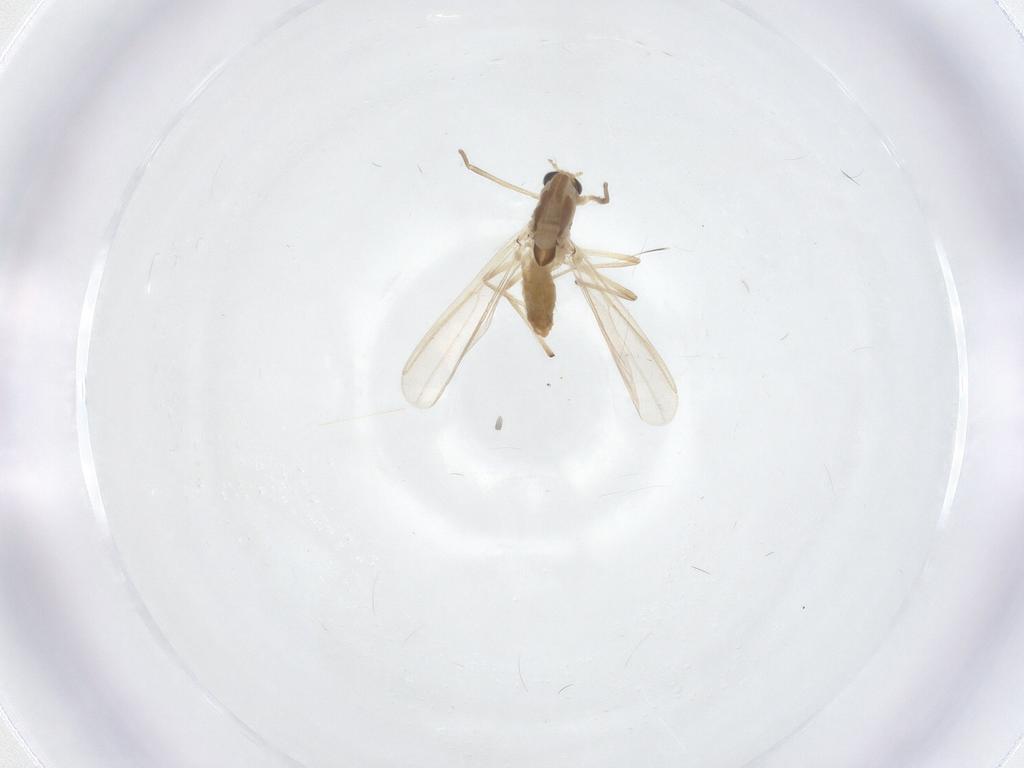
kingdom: Animalia
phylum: Arthropoda
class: Insecta
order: Diptera
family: Chironomidae
